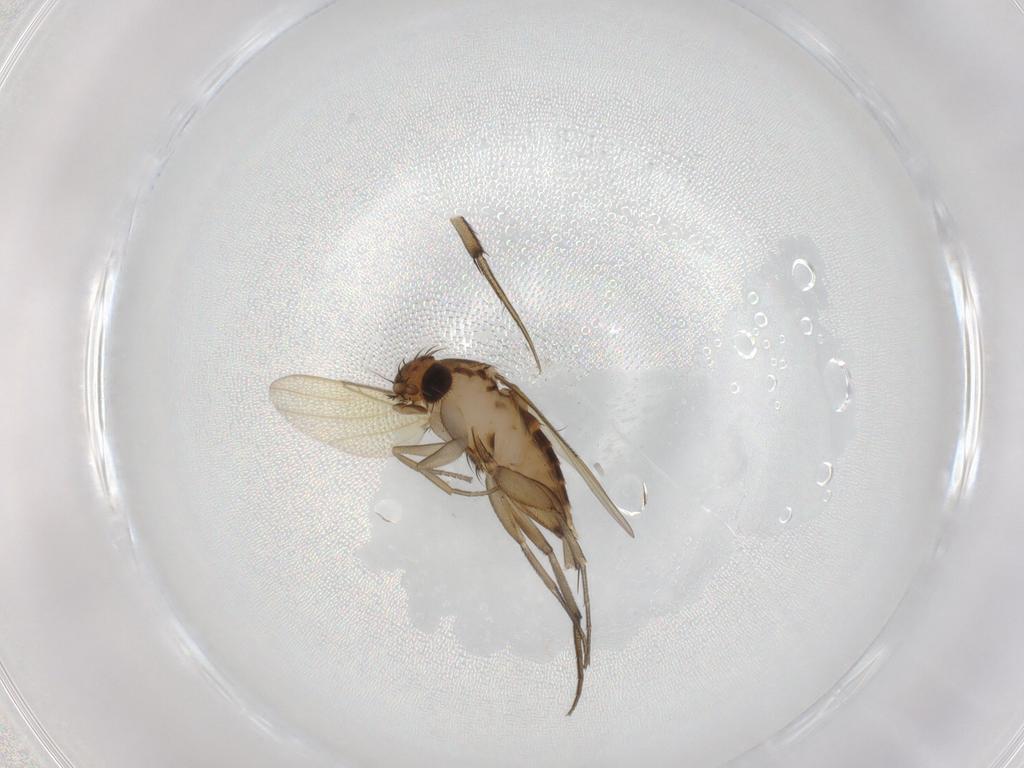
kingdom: Animalia
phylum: Arthropoda
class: Insecta
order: Diptera
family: Phoridae
